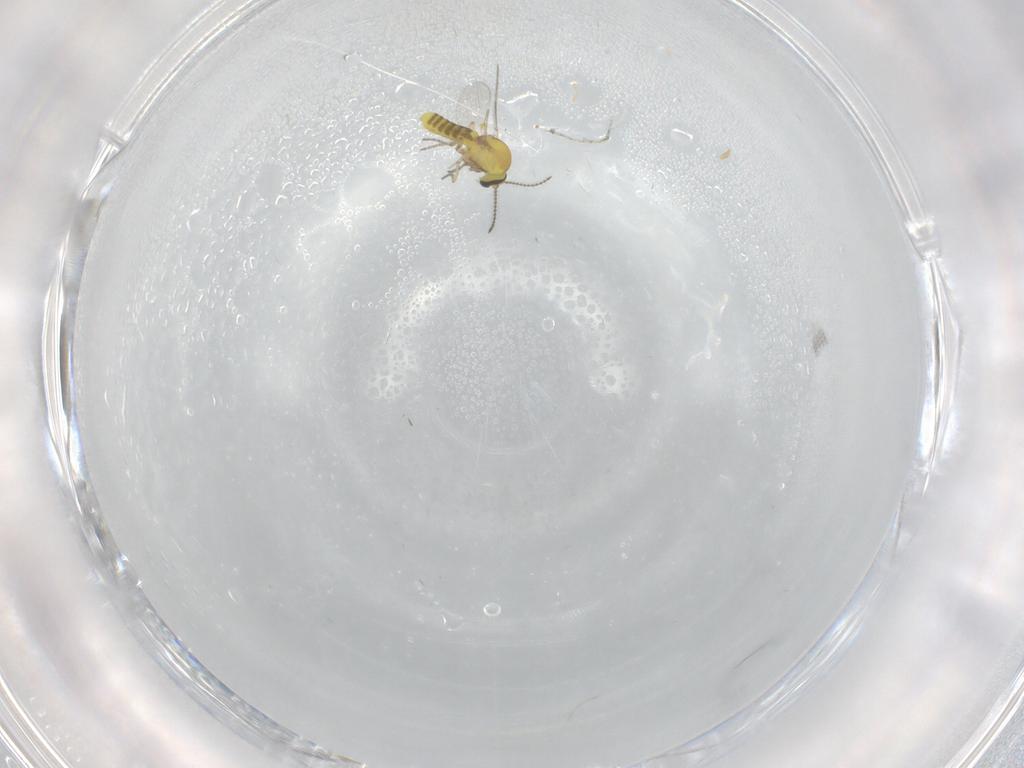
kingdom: Animalia
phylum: Arthropoda
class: Insecta
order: Diptera
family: Ceratopogonidae
